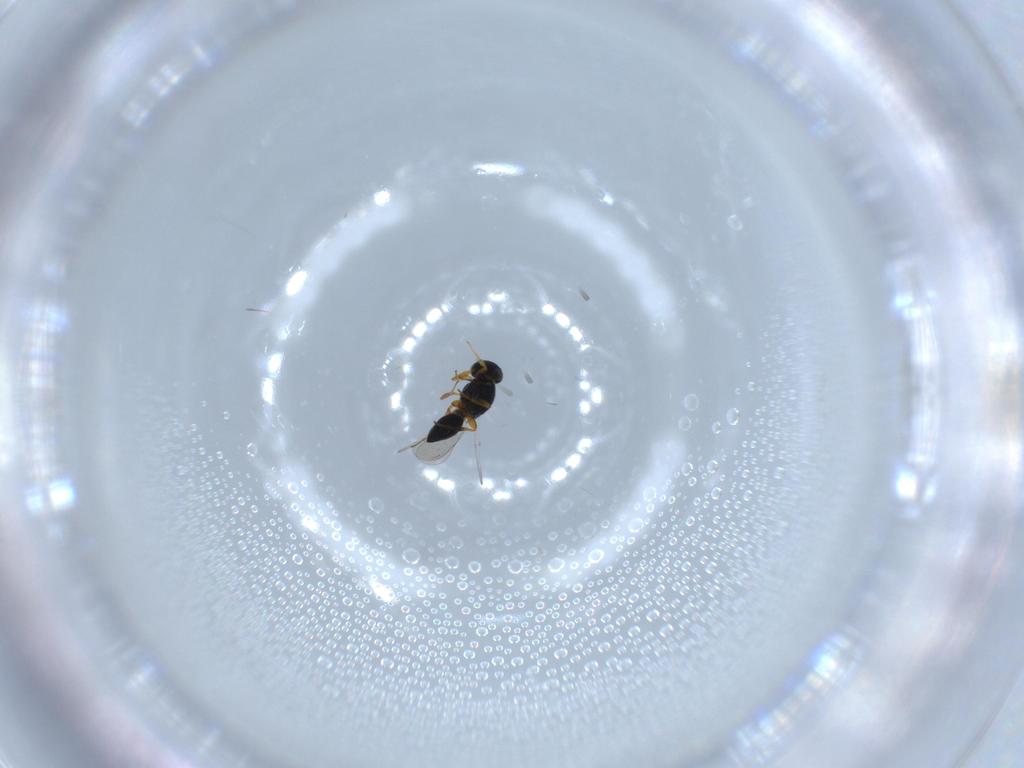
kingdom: Animalia
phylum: Arthropoda
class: Insecta
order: Hymenoptera
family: Platygastridae
